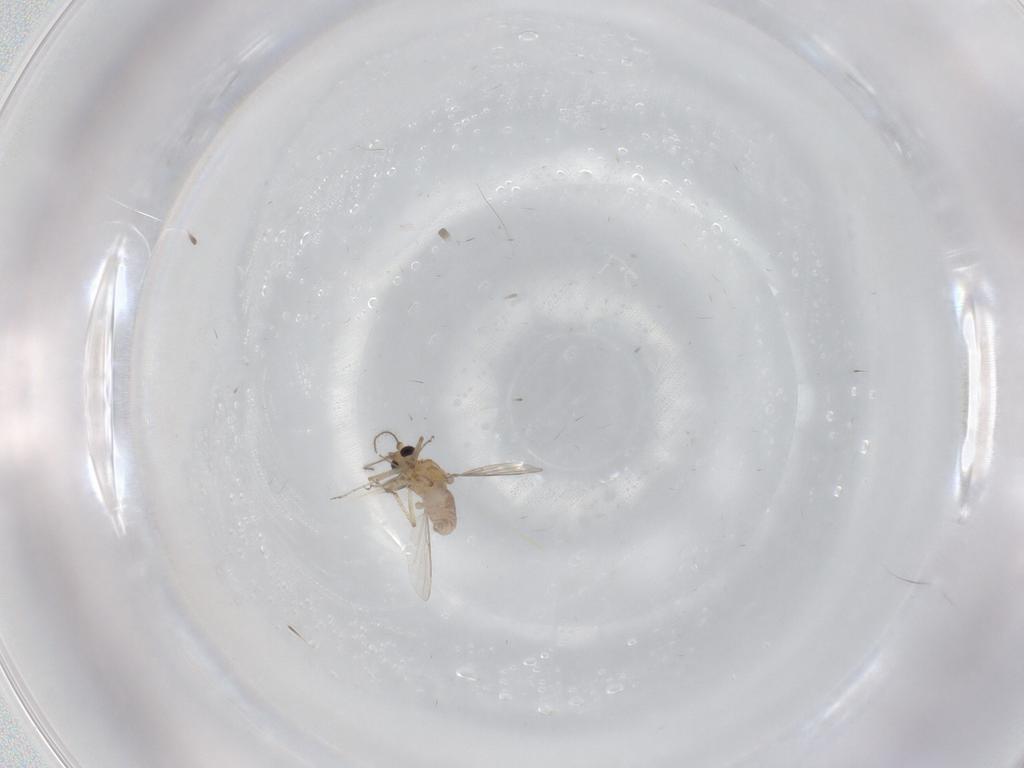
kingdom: Animalia
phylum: Arthropoda
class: Insecta
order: Diptera
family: Ceratopogonidae
